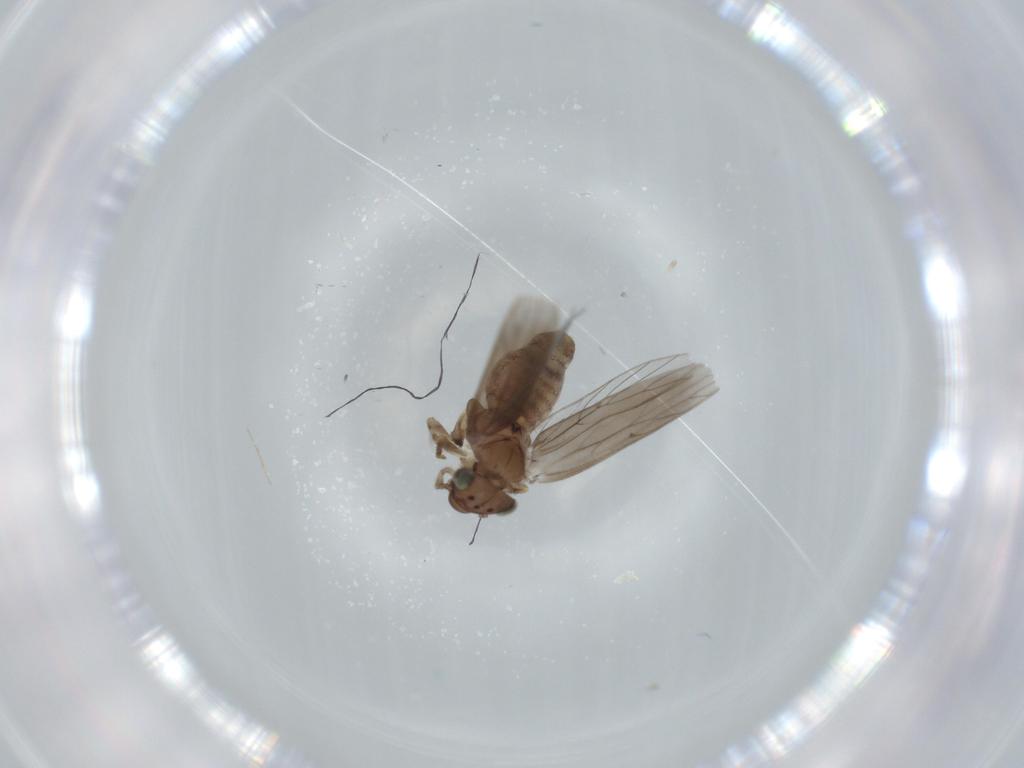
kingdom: Animalia
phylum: Arthropoda
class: Insecta
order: Psocodea
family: Lepidopsocidae
